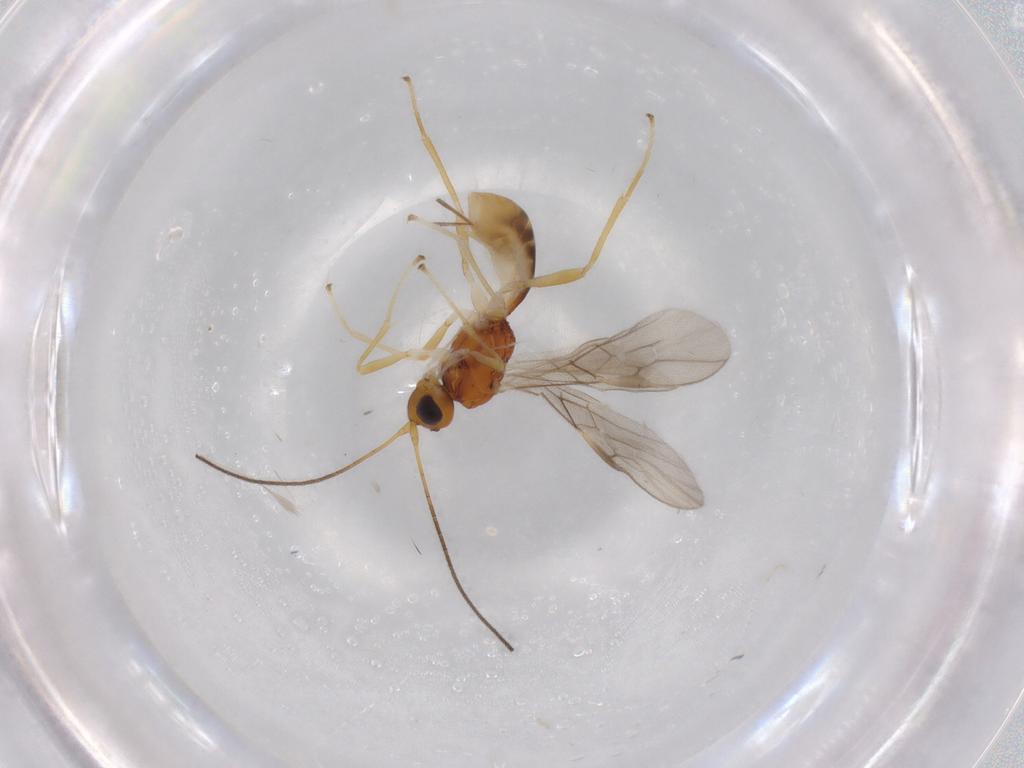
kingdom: Animalia
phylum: Arthropoda
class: Insecta
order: Hymenoptera
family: Braconidae
